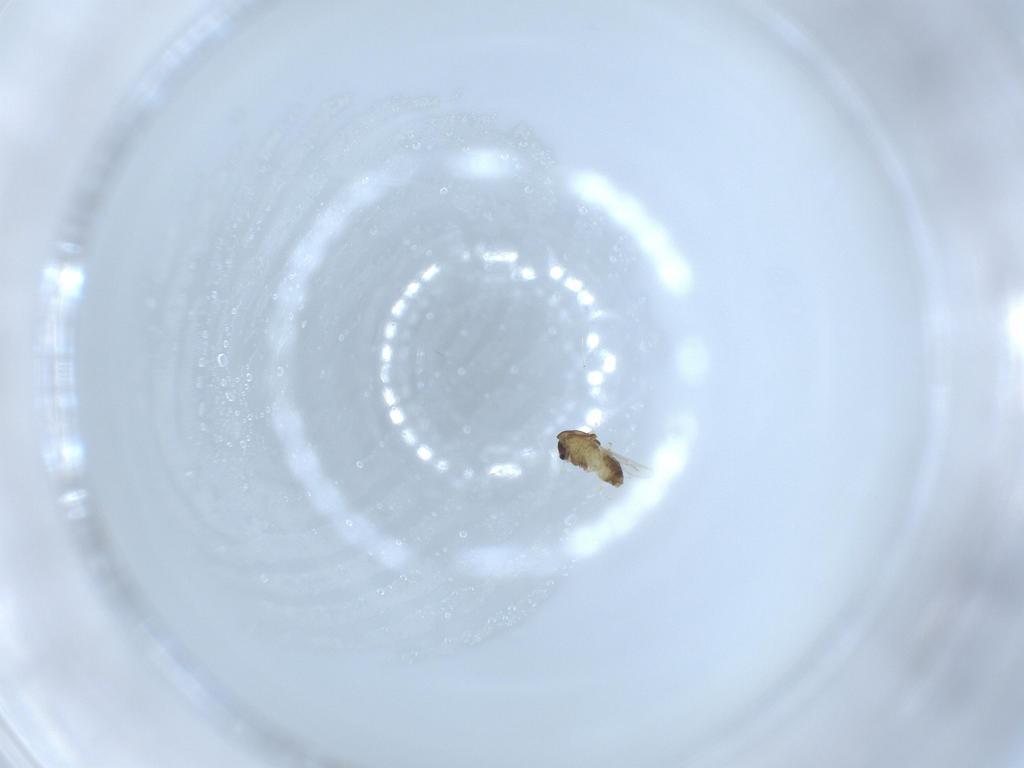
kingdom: Animalia
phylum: Arthropoda
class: Insecta
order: Diptera
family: Chironomidae
